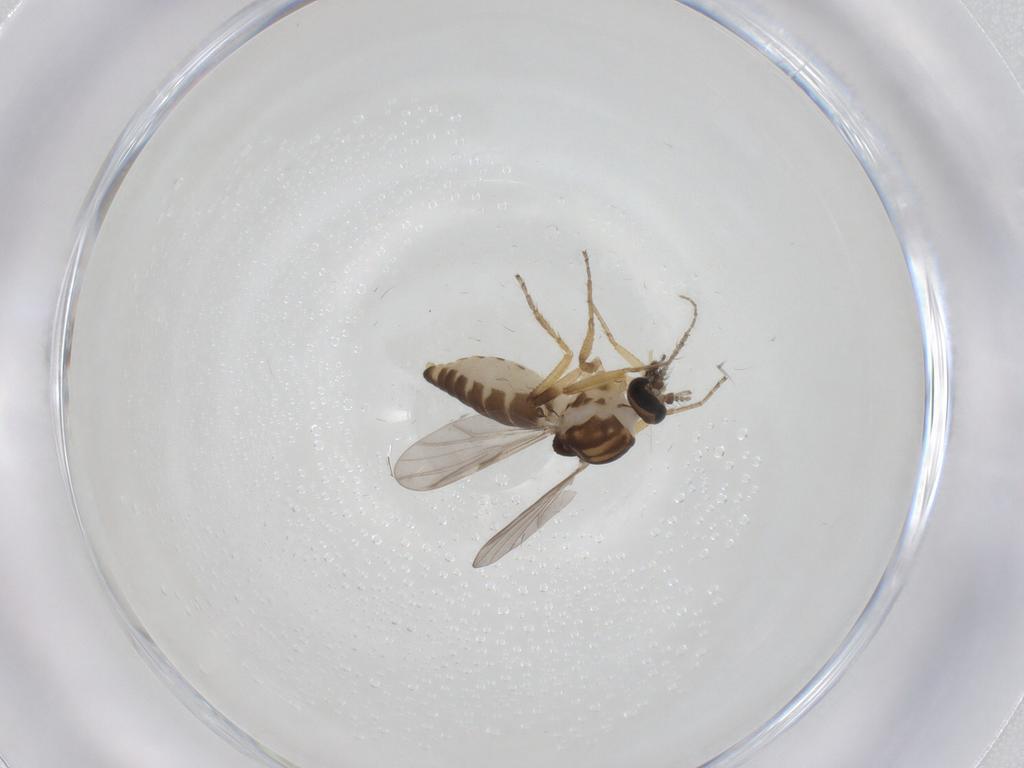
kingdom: Animalia
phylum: Arthropoda
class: Insecta
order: Diptera
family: Ceratopogonidae
